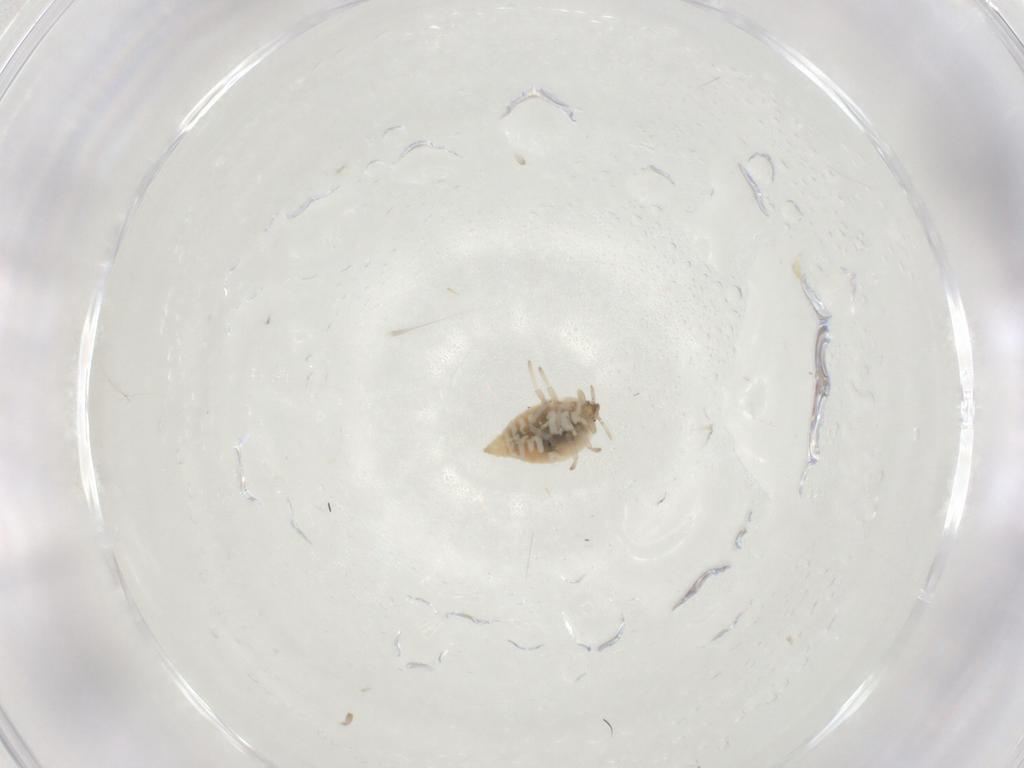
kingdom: Animalia
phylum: Arthropoda
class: Insecta
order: Neuroptera
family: Coniopterygidae
